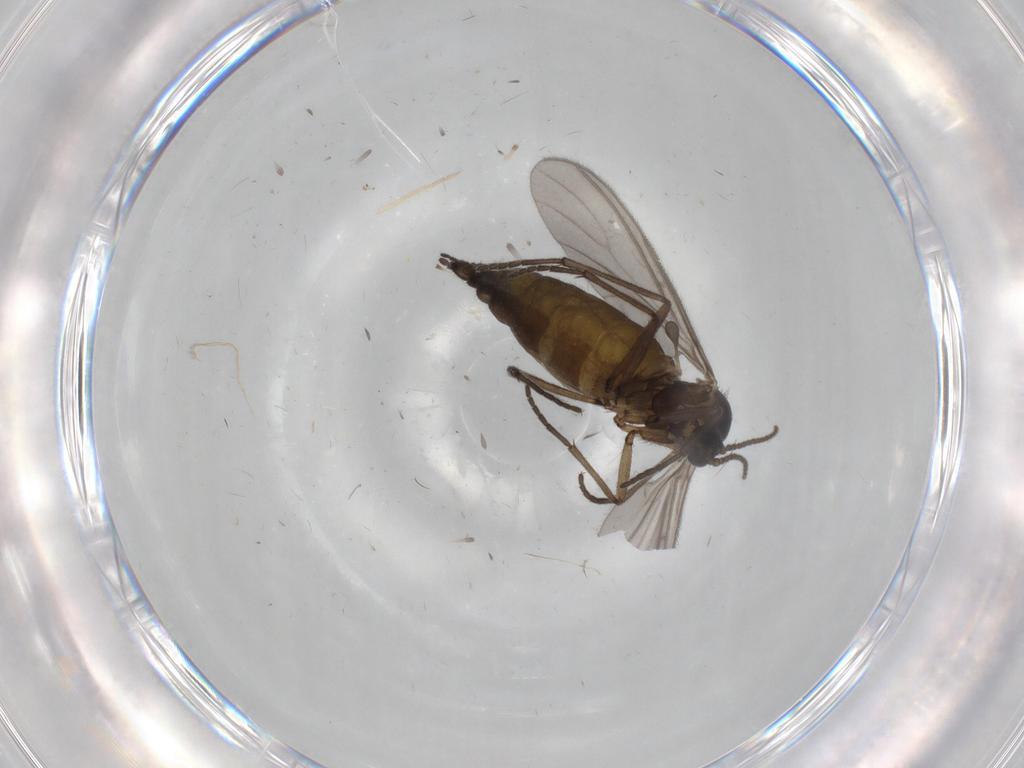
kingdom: Animalia
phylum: Arthropoda
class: Insecta
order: Diptera
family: Sciaridae
